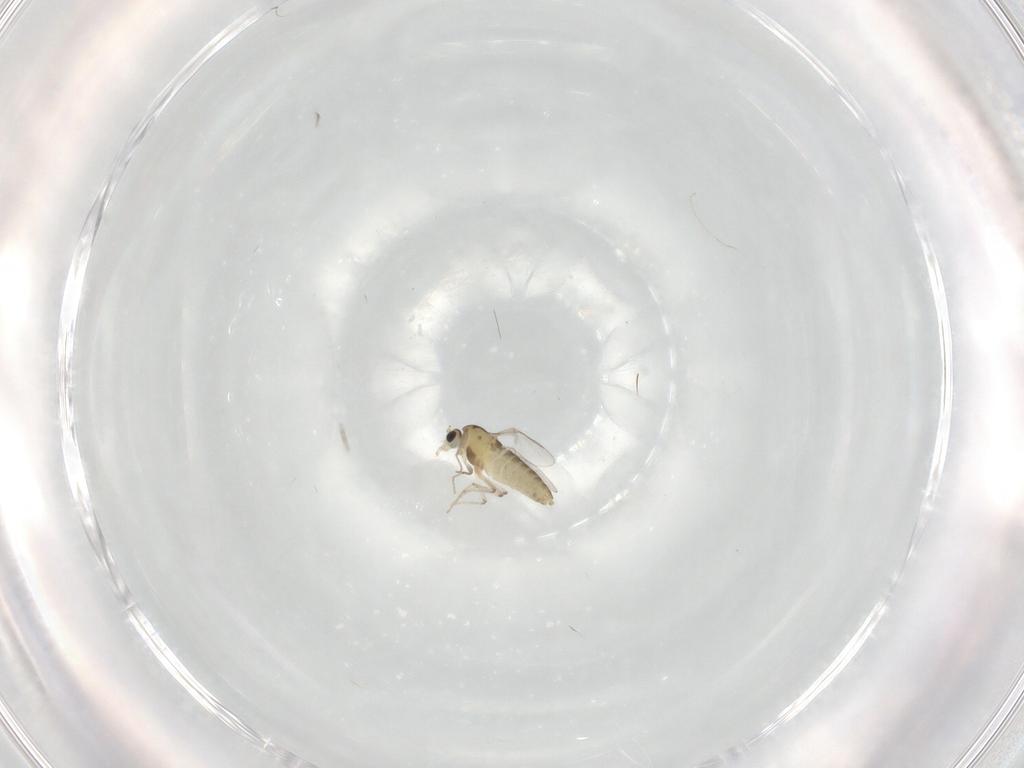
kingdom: Animalia
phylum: Arthropoda
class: Insecta
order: Diptera
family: Chironomidae
